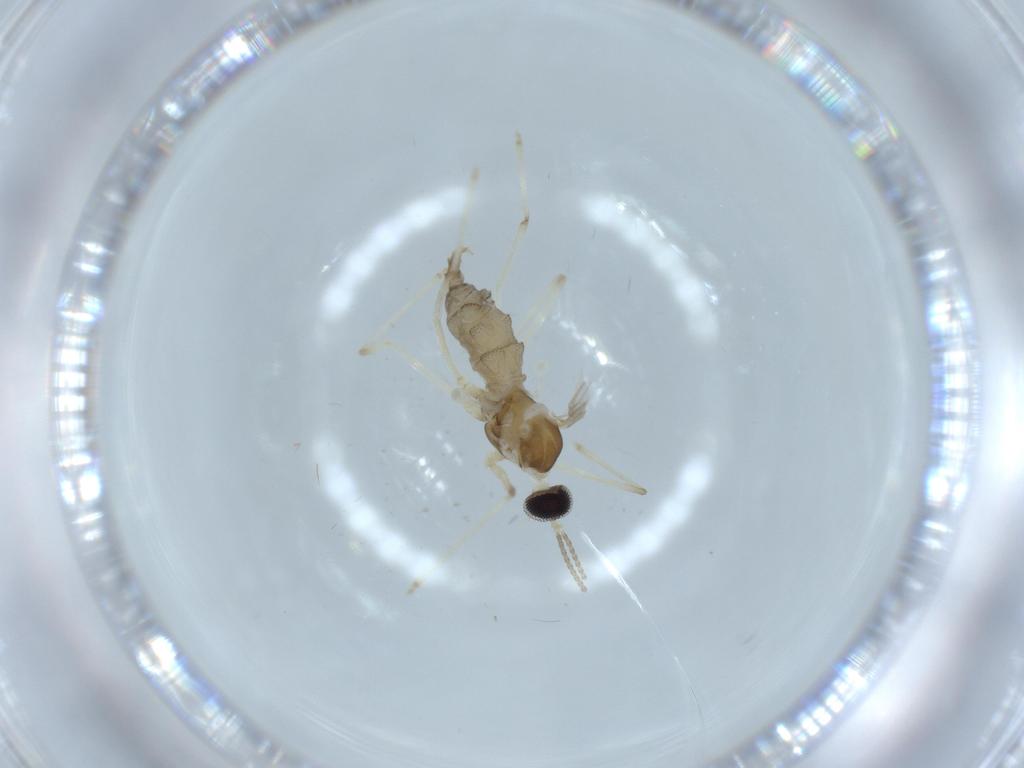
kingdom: Animalia
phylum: Arthropoda
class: Insecta
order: Diptera
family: Cecidomyiidae
